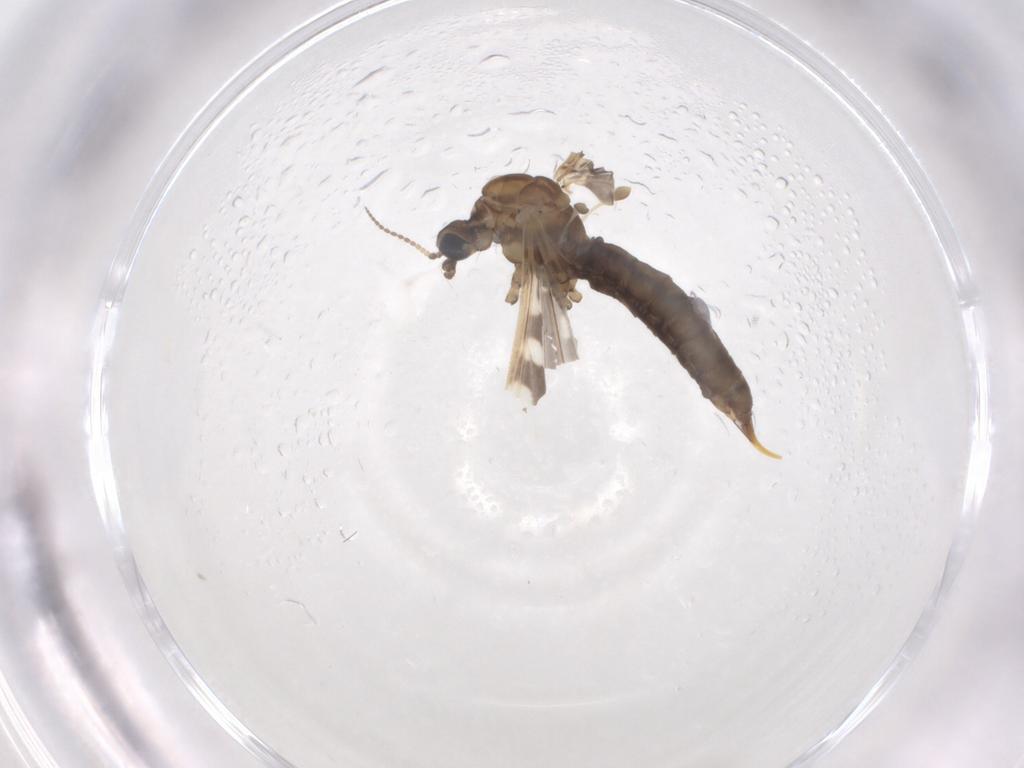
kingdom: Animalia
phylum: Arthropoda
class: Insecta
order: Diptera
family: Limoniidae
